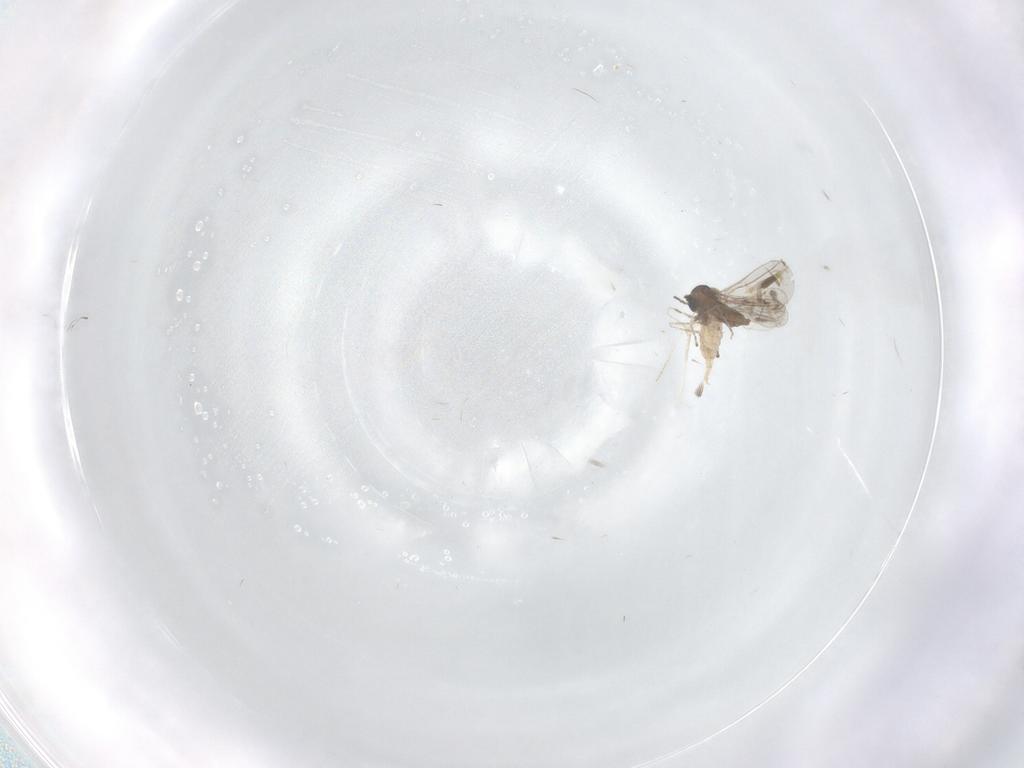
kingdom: Animalia
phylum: Arthropoda
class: Insecta
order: Diptera
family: Cecidomyiidae
